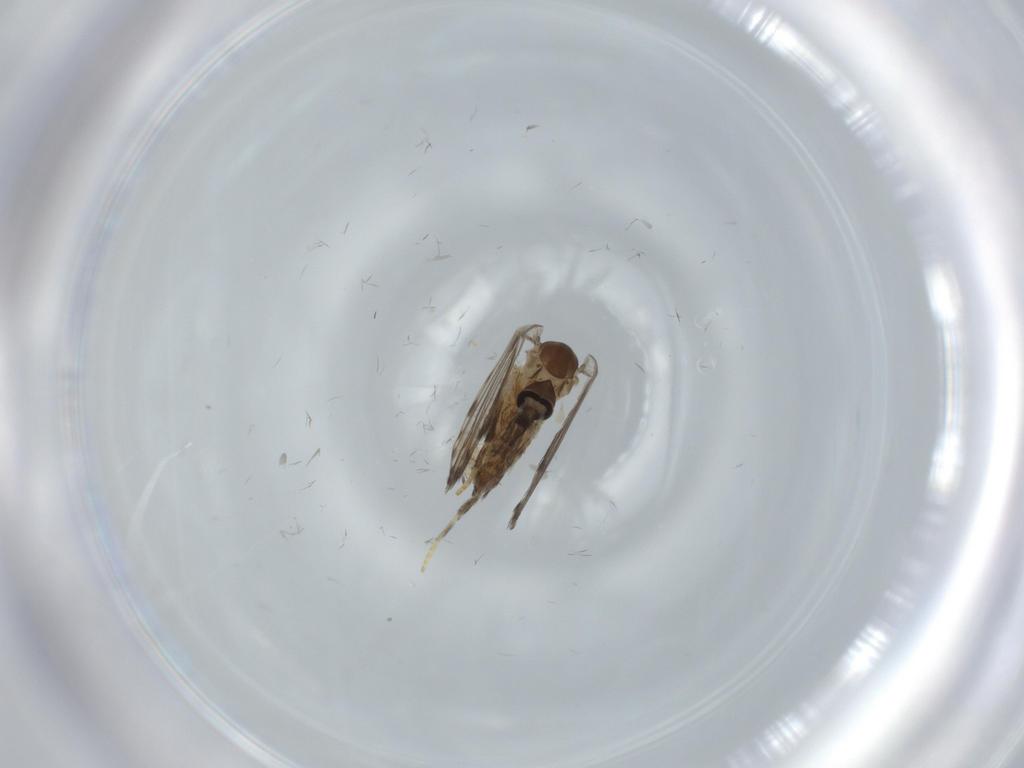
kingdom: Animalia
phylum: Arthropoda
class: Insecta
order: Diptera
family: Psychodidae
